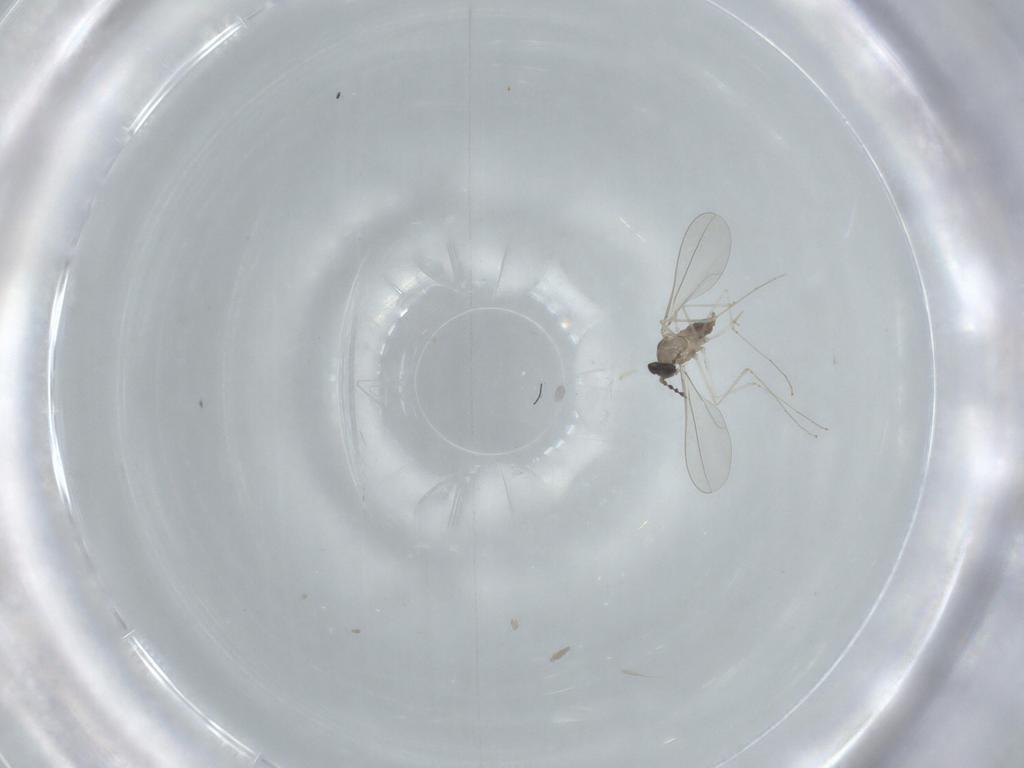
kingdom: Animalia
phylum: Arthropoda
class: Insecta
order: Diptera
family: Cecidomyiidae
